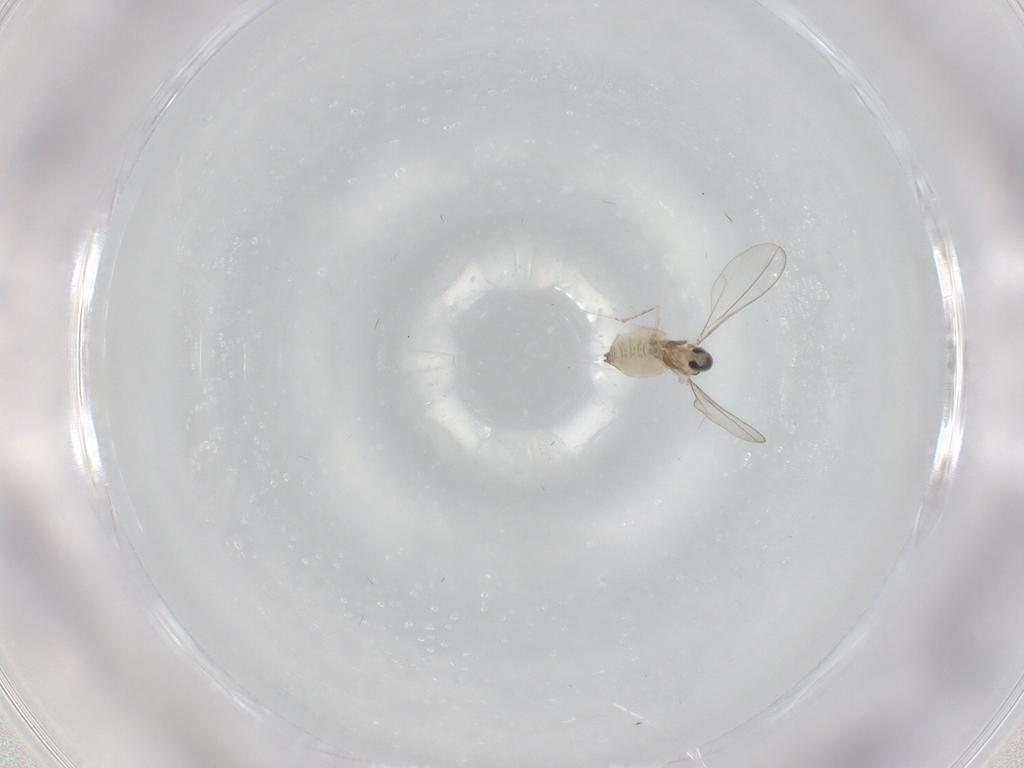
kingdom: Animalia
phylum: Arthropoda
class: Insecta
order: Diptera
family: Cecidomyiidae
